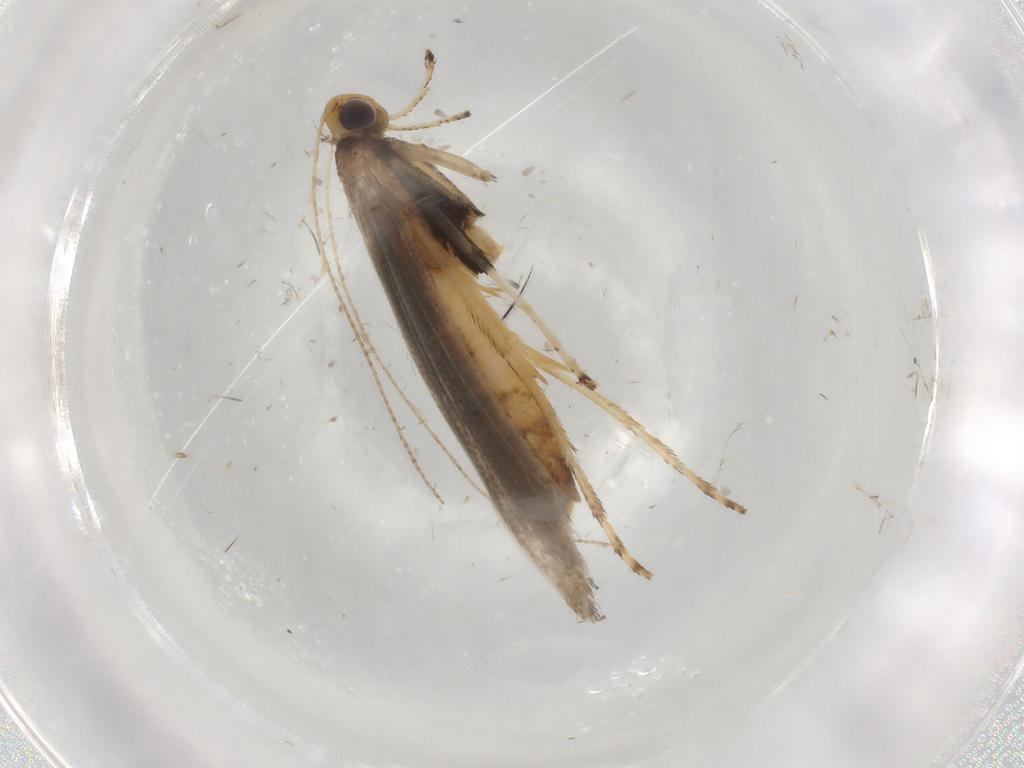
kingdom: Animalia
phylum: Arthropoda
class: Insecta
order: Lepidoptera
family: Gracillariidae
